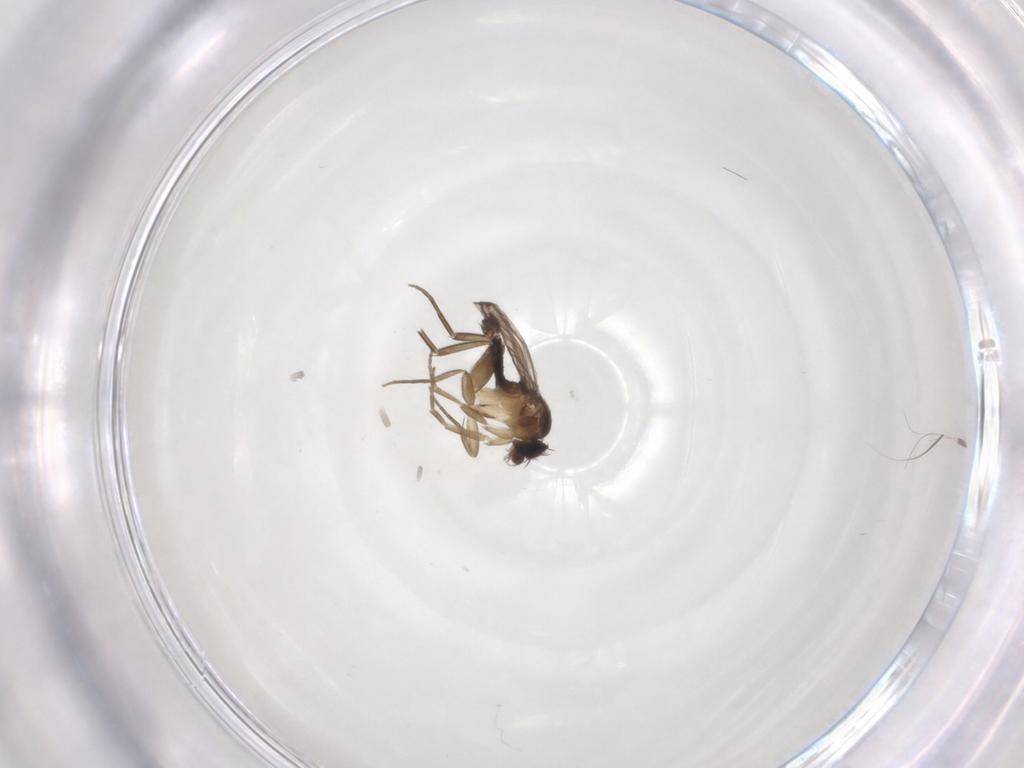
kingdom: Animalia
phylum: Arthropoda
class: Insecta
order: Diptera
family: Phoridae
